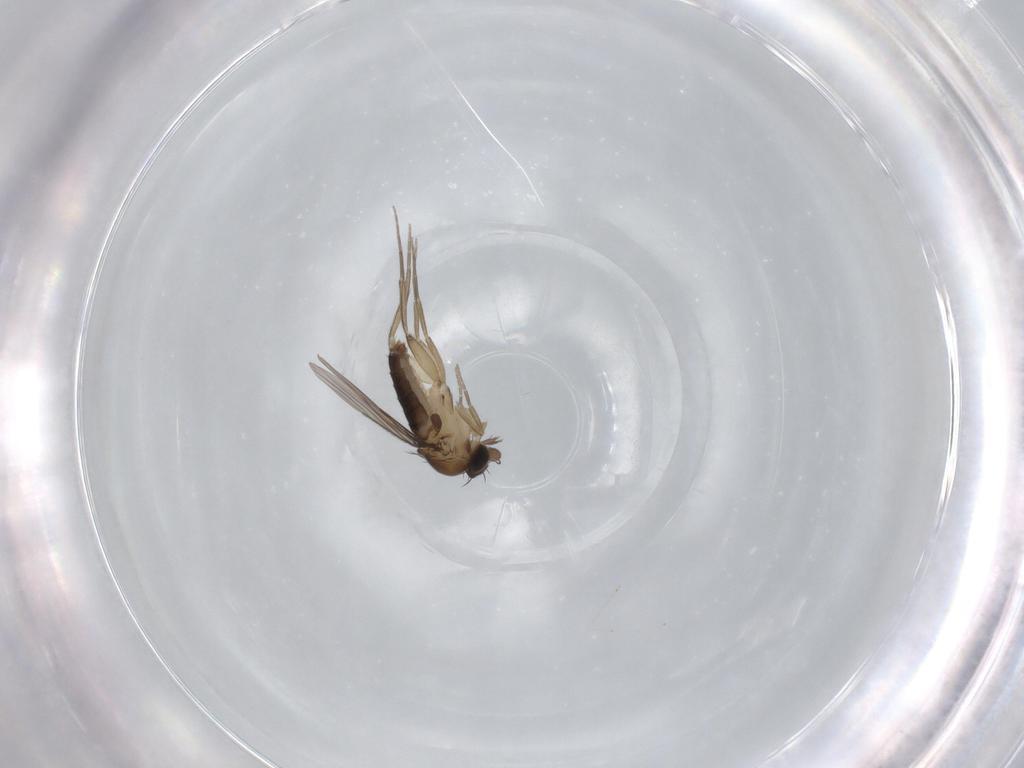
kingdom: Animalia
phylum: Arthropoda
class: Insecta
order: Diptera
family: Phoridae
